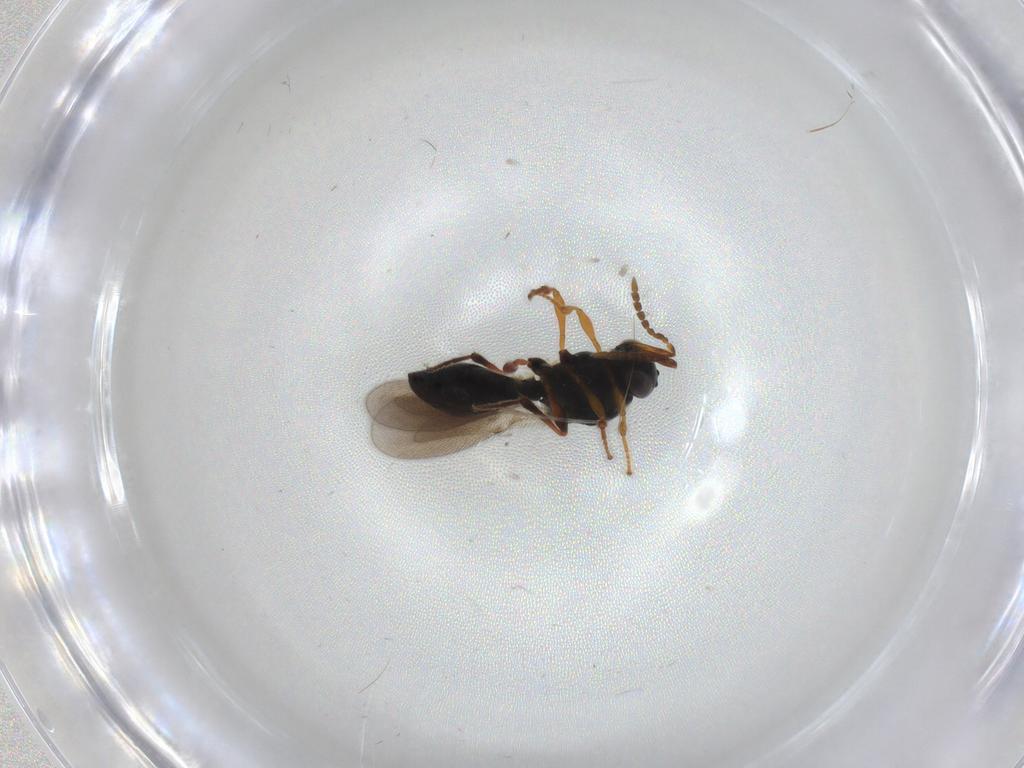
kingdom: Animalia
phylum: Arthropoda
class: Insecta
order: Hymenoptera
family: Platygastridae
